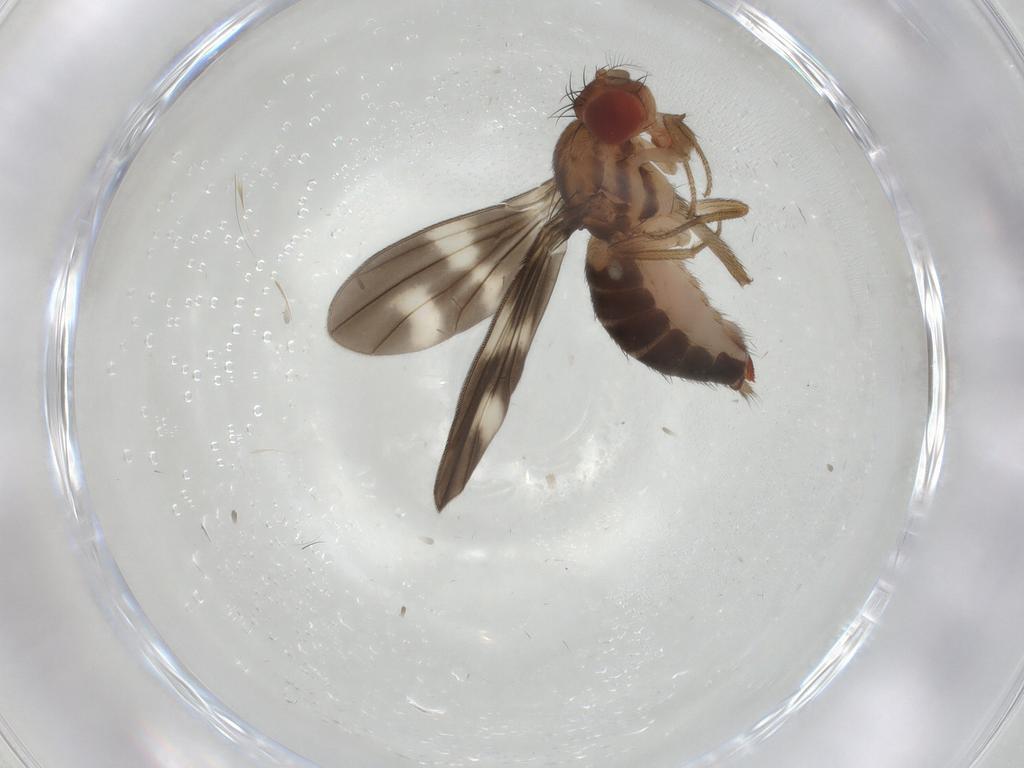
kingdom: Animalia
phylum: Arthropoda
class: Insecta
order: Diptera
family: Drosophilidae
